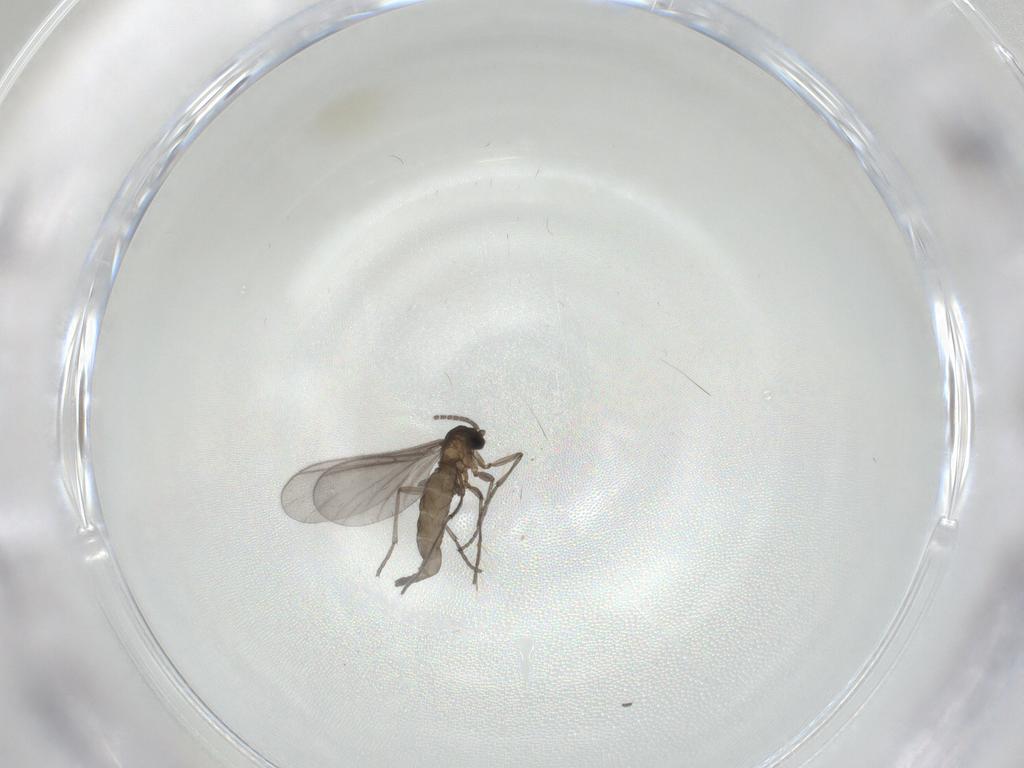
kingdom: Animalia
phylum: Arthropoda
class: Insecta
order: Diptera
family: Sciaridae
